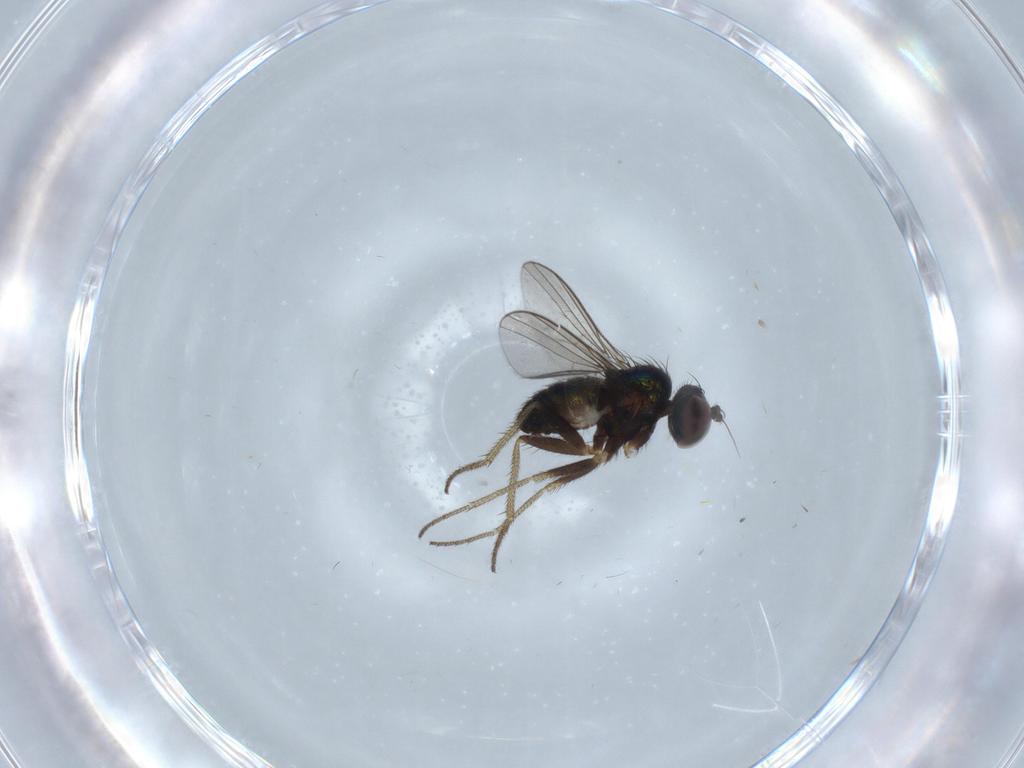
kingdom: Animalia
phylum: Arthropoda
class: Insecta
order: Diptera
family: Dolichopodidae
